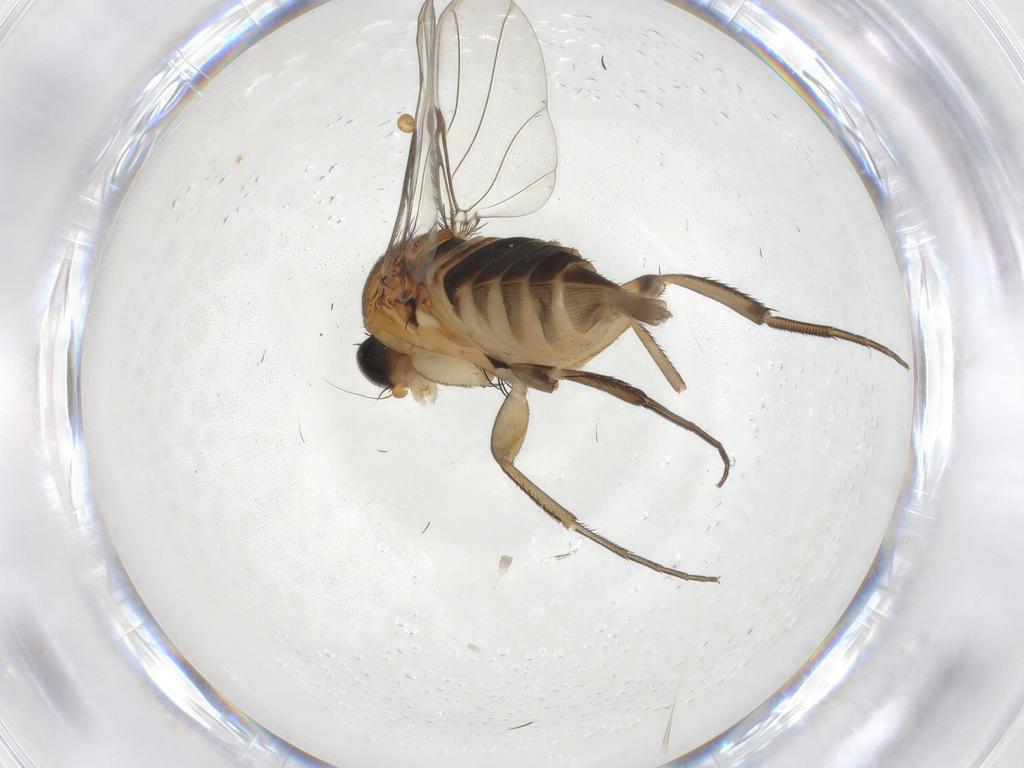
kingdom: Animalia
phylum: Arthropoda
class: Insecta
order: Diptera
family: Phoridae
